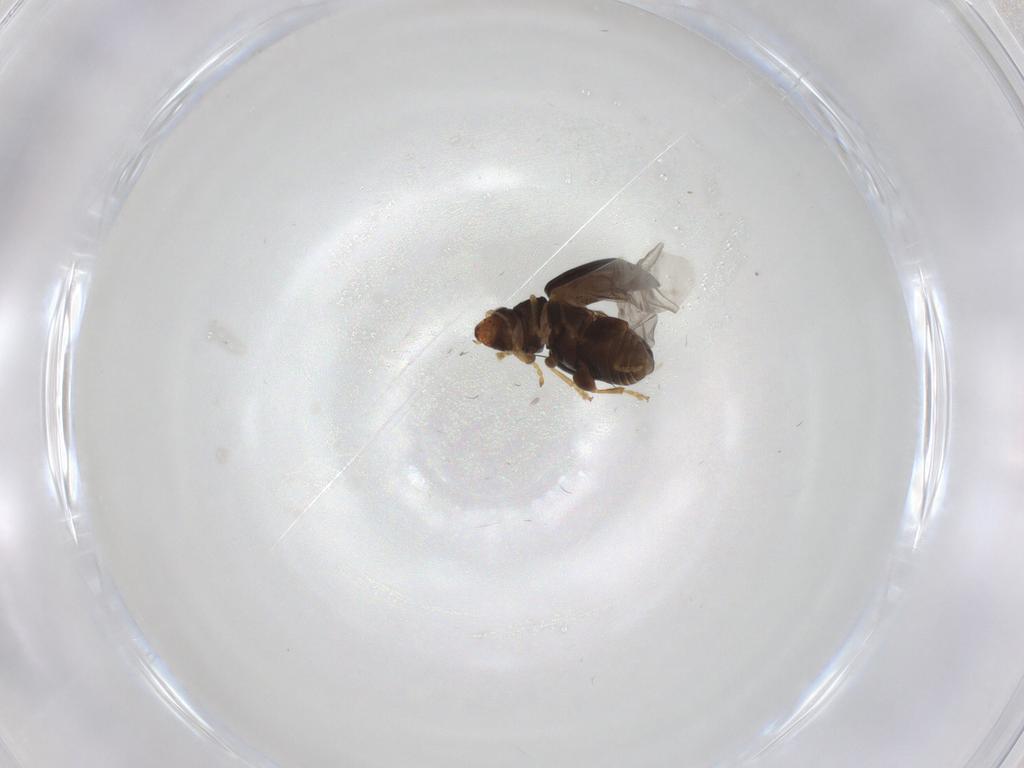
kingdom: Animalia
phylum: Arthropoda
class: Insecta
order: Coleoptera
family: Chrysomelidae
